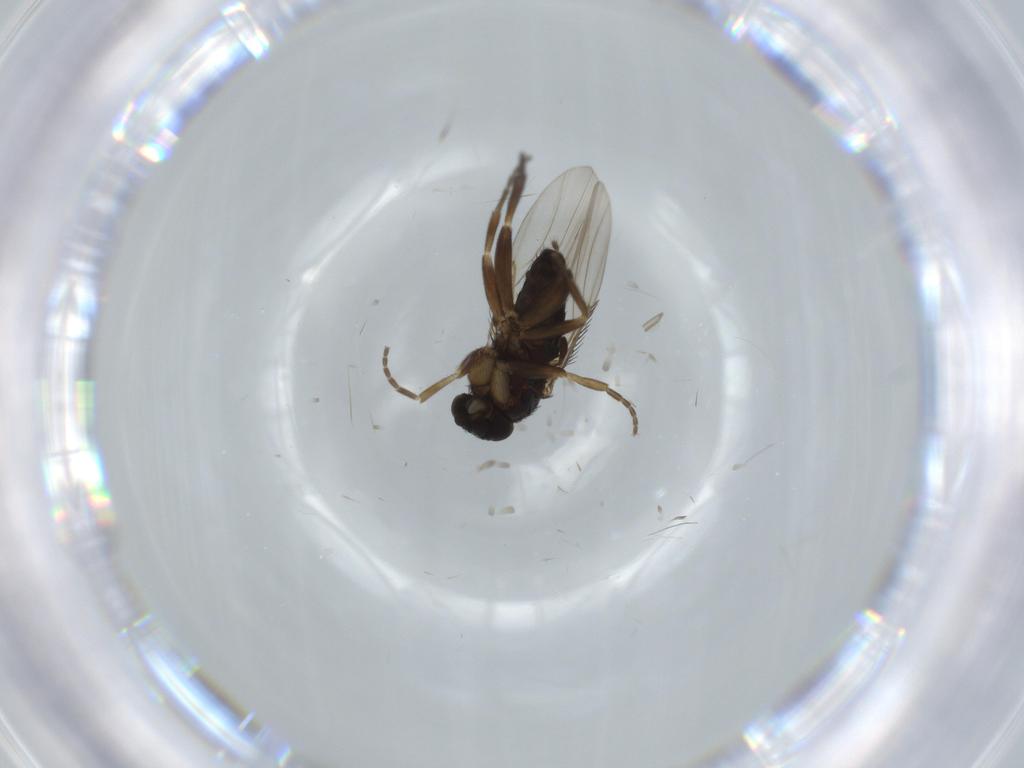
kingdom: Animalia
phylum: Arthropoda
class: Insecta
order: Diptera
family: Phoridae
